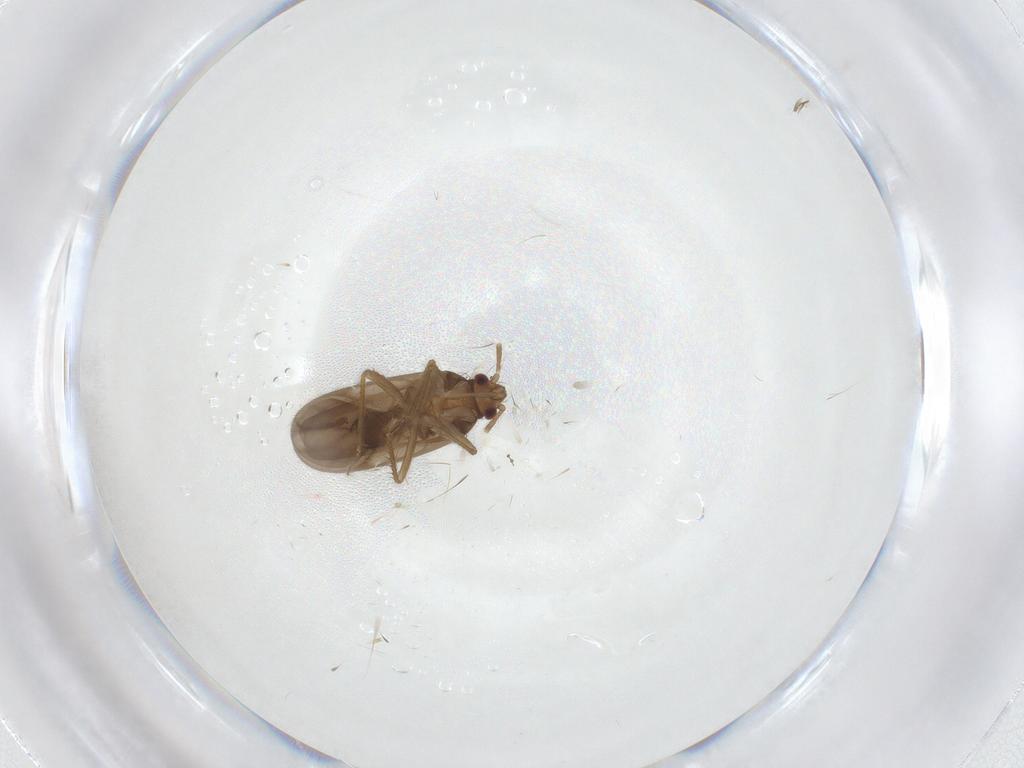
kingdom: Animalia
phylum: Arthropoda
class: Insecta
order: Hemiptera
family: Ceratocombidae
